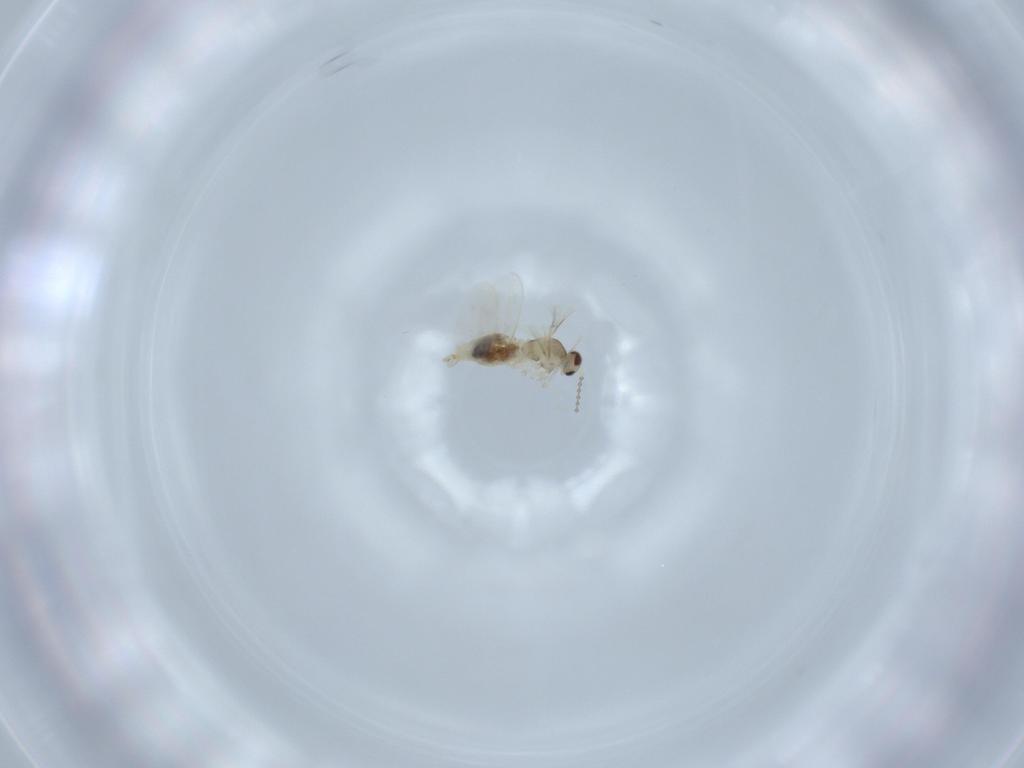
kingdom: Animalia
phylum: Arthropoda
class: Insecta
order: Diptera
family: Cecidomyiidae
